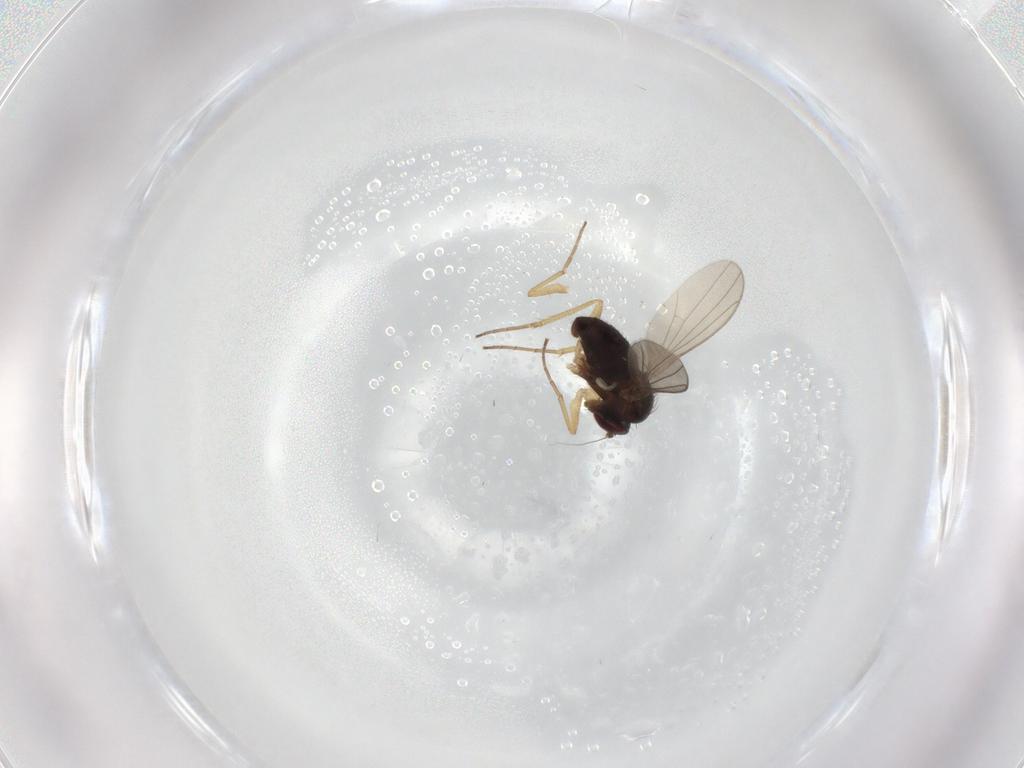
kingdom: Animalia
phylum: Arthropoda
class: Insecta
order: Diptera
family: Dolichopodidae
